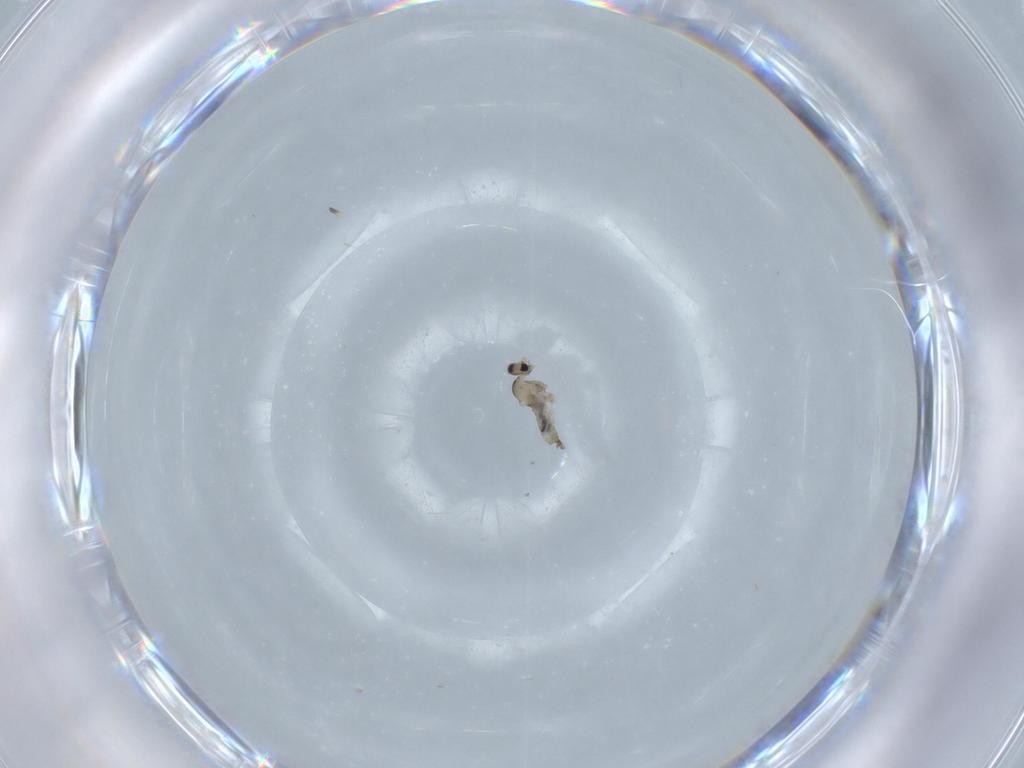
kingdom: Animalia
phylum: Arthropoda
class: Insecta
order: Diptera
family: Cecidomyiidae
